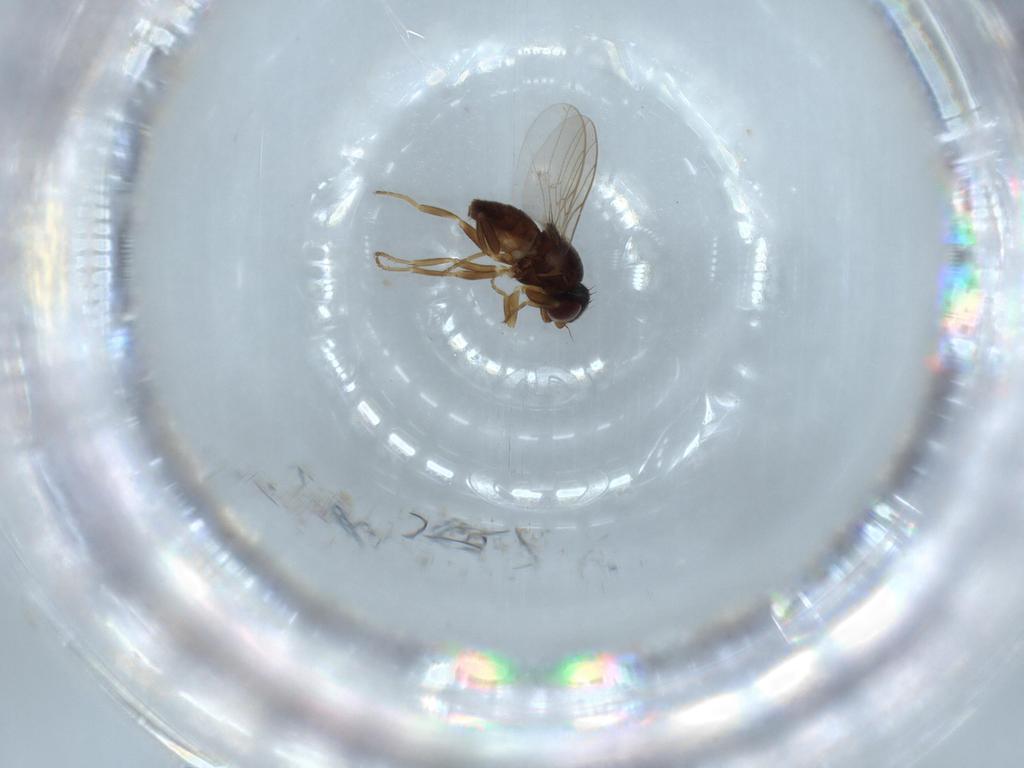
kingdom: Animalia
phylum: Arthropoda
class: Insecta
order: Diptera
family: Chloropidae
